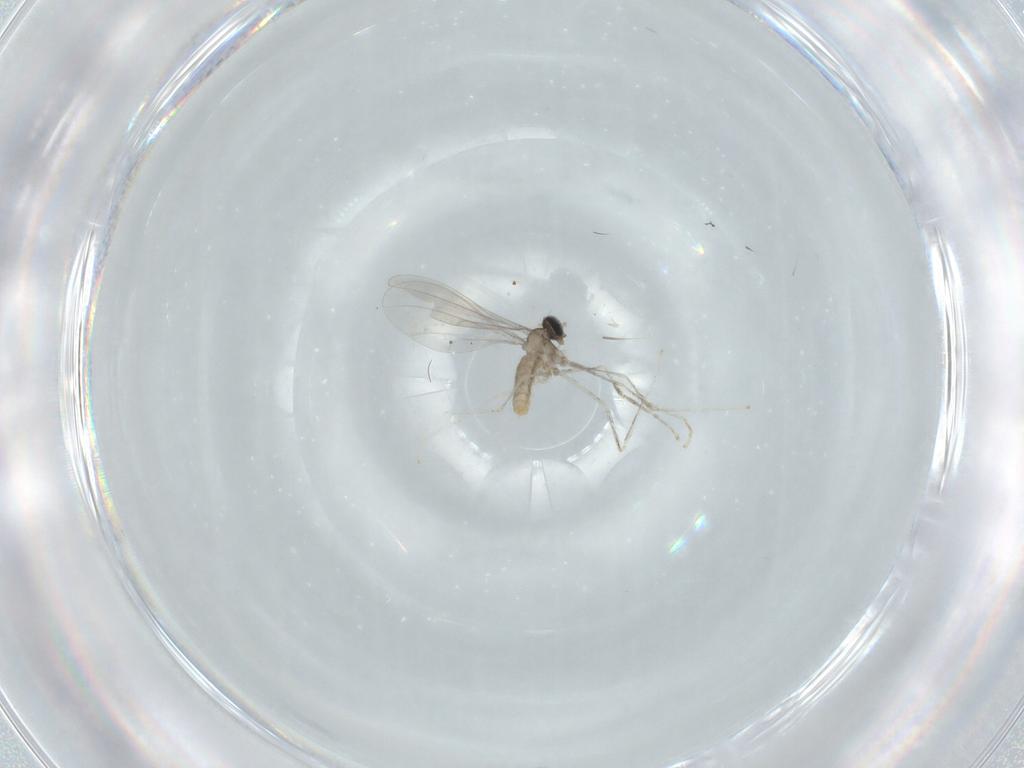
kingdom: Animalia
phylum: Arthropoda
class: Insecta
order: Diptera
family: Cecidomyiidae
